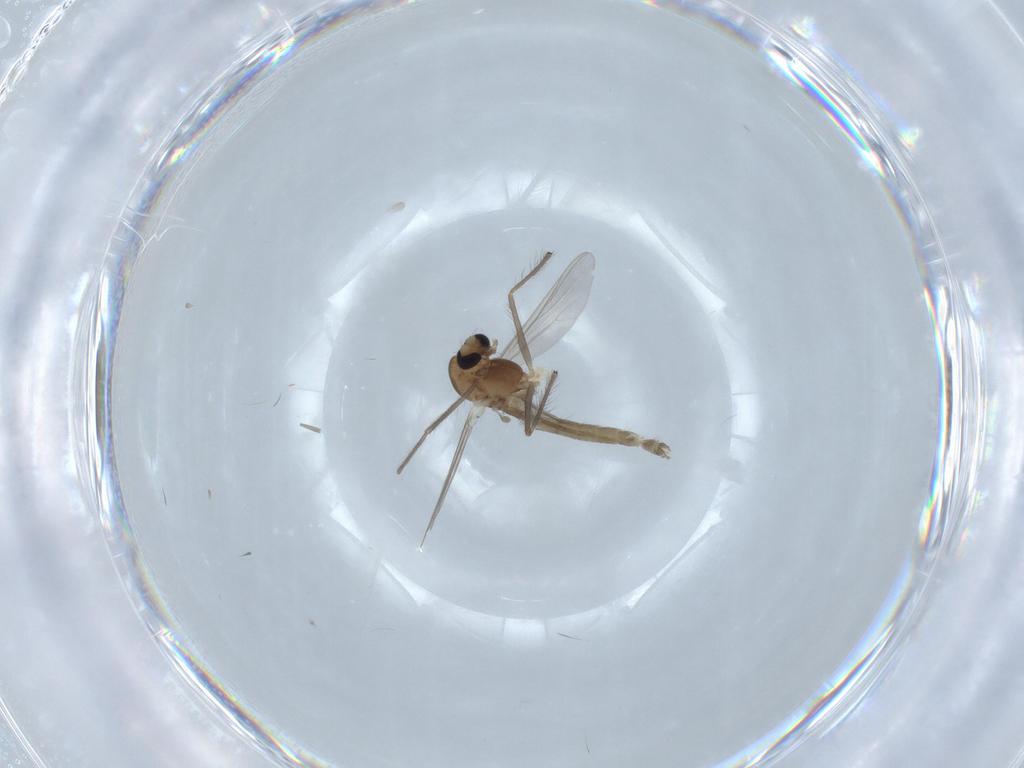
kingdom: Animalia
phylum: Arthropoda
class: Insecta
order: Diptera
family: Chironomidae
